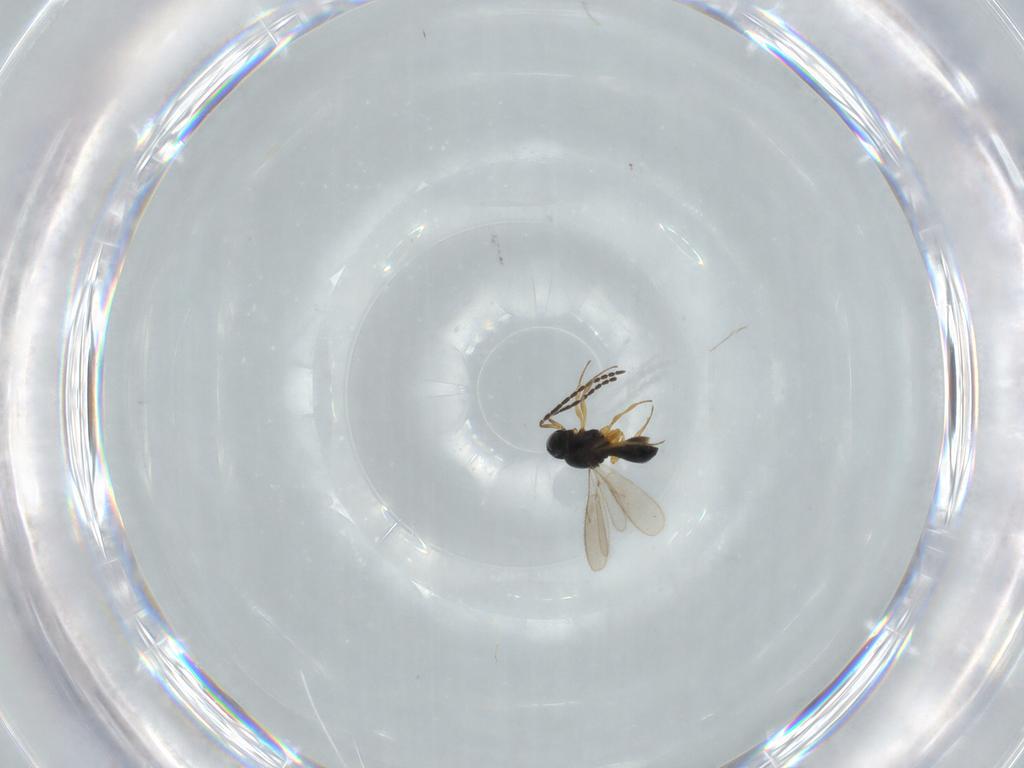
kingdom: Animalia
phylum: Arthropoda
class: Insecta
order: Hymenoptera
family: Scelionidae
